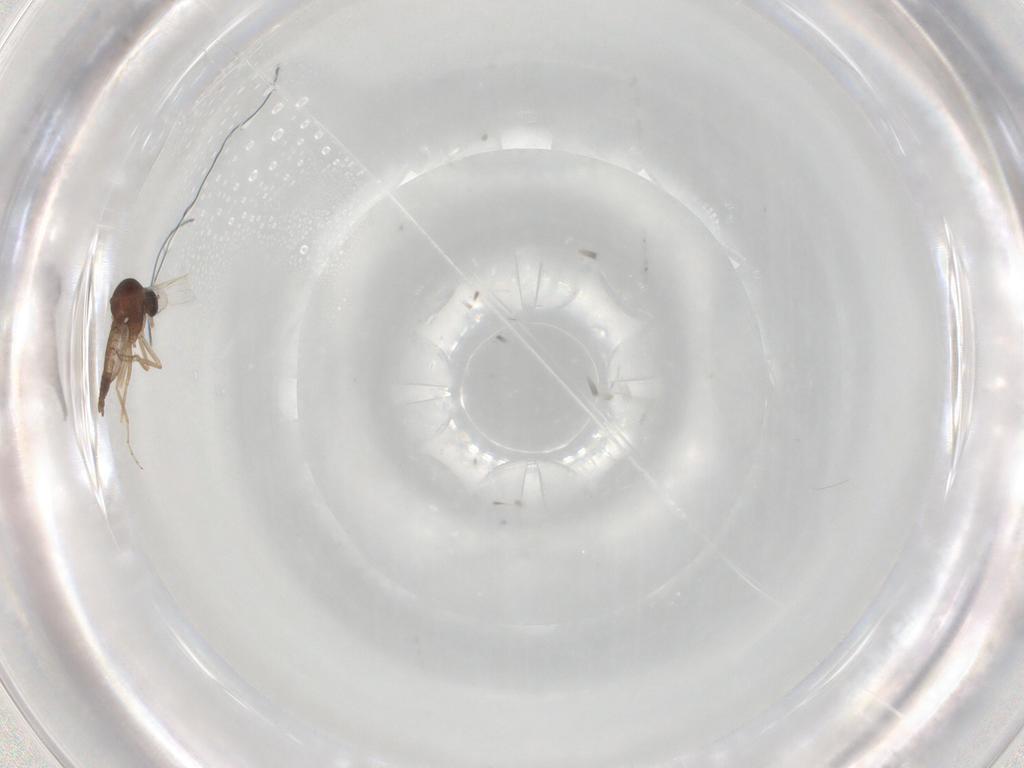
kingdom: Animalia
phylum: Arthropoda
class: Insecta
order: Diptera
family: Ceratopogonidae
